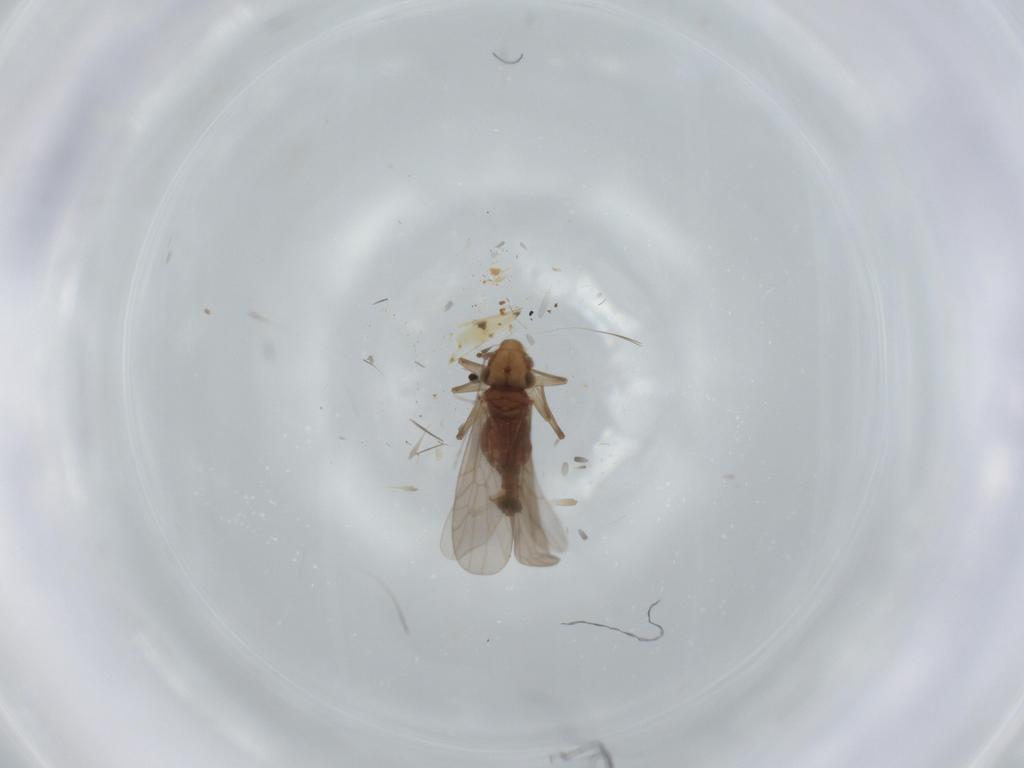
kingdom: Animalia
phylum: Arthropoda
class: Insecta
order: Psocodea
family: Lepidopsocidae
